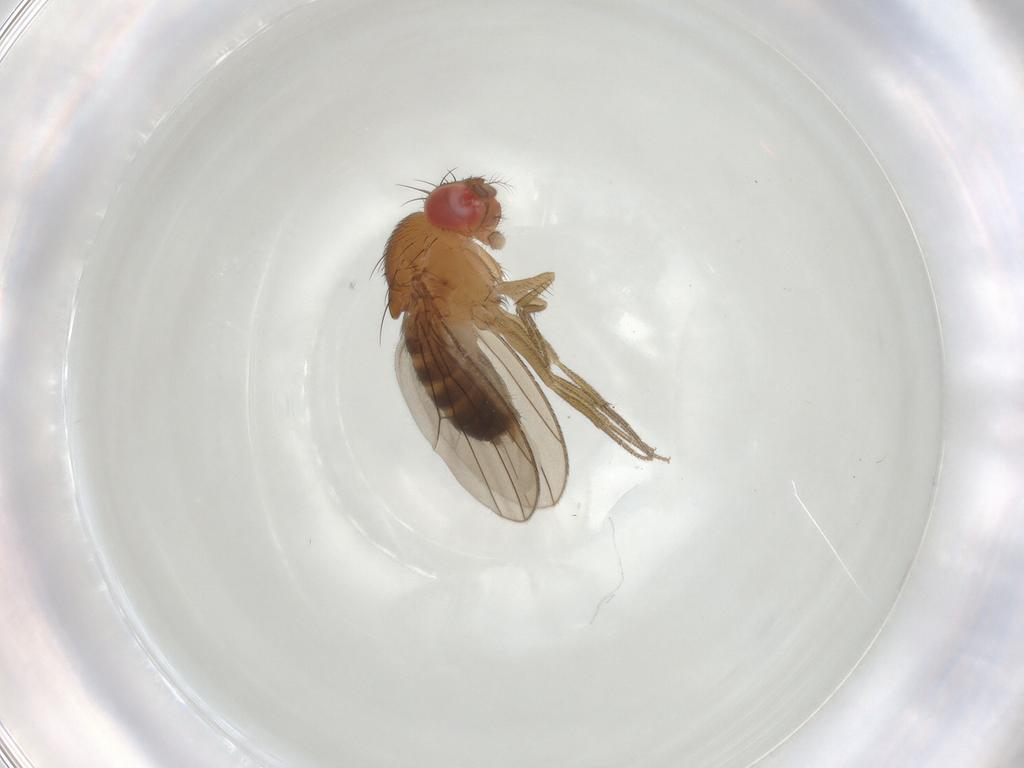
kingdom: Animalia
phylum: Arthropoda
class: Insecta
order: Diptera
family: Drosophilidae
